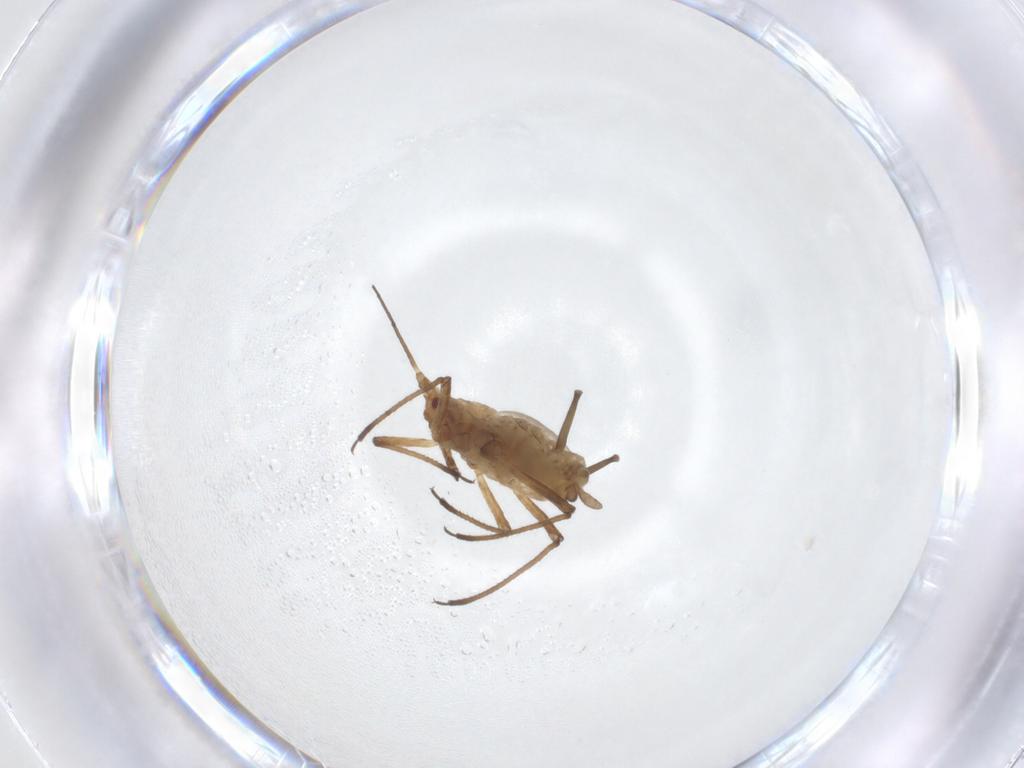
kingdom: Animalia
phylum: Arthropoda
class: Insecta
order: Hemiptera
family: Aphididae
